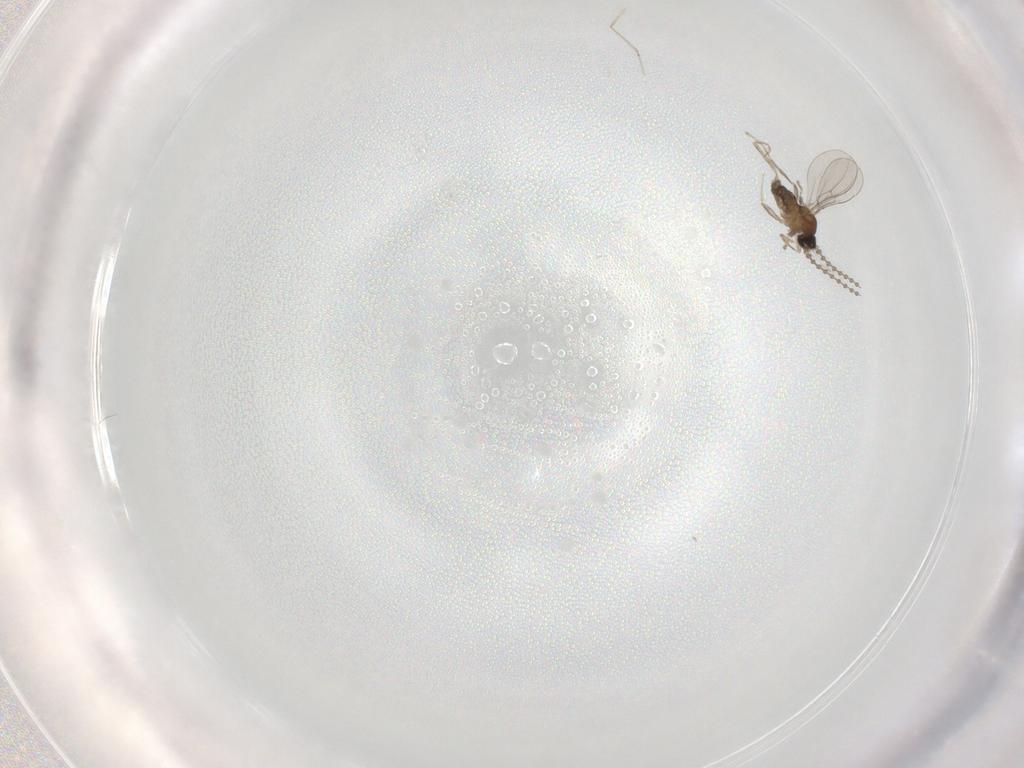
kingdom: Animalia
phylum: Arthropoda
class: Insecta
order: Diptera
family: Cecidomyiidae
